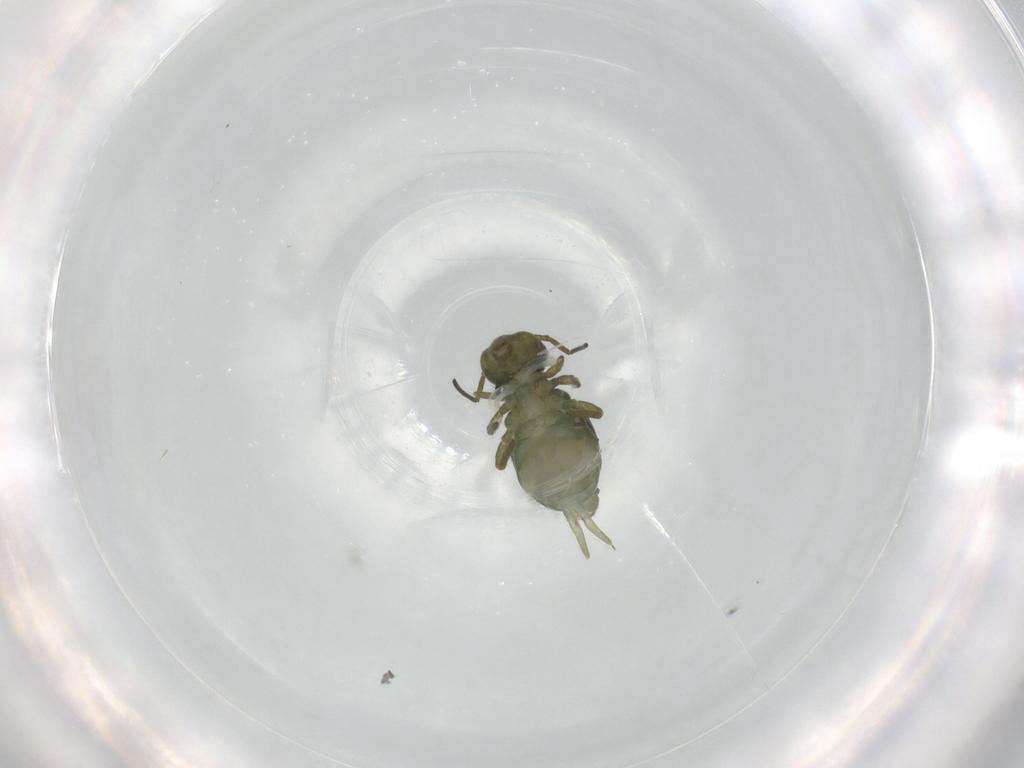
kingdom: Animalia
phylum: Arthropoda
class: Collembola
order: Symphypleona
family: Sminthuridae
